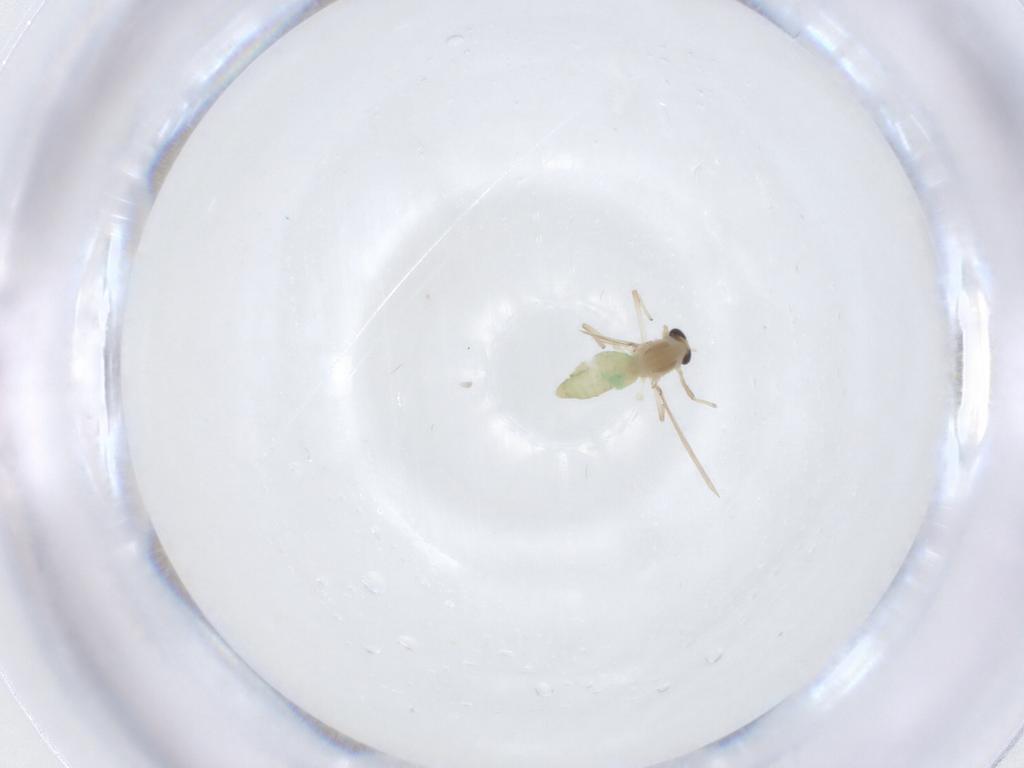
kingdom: Animalia
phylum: Arthropoda
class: Insecta
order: Diptera
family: Chironomidae
